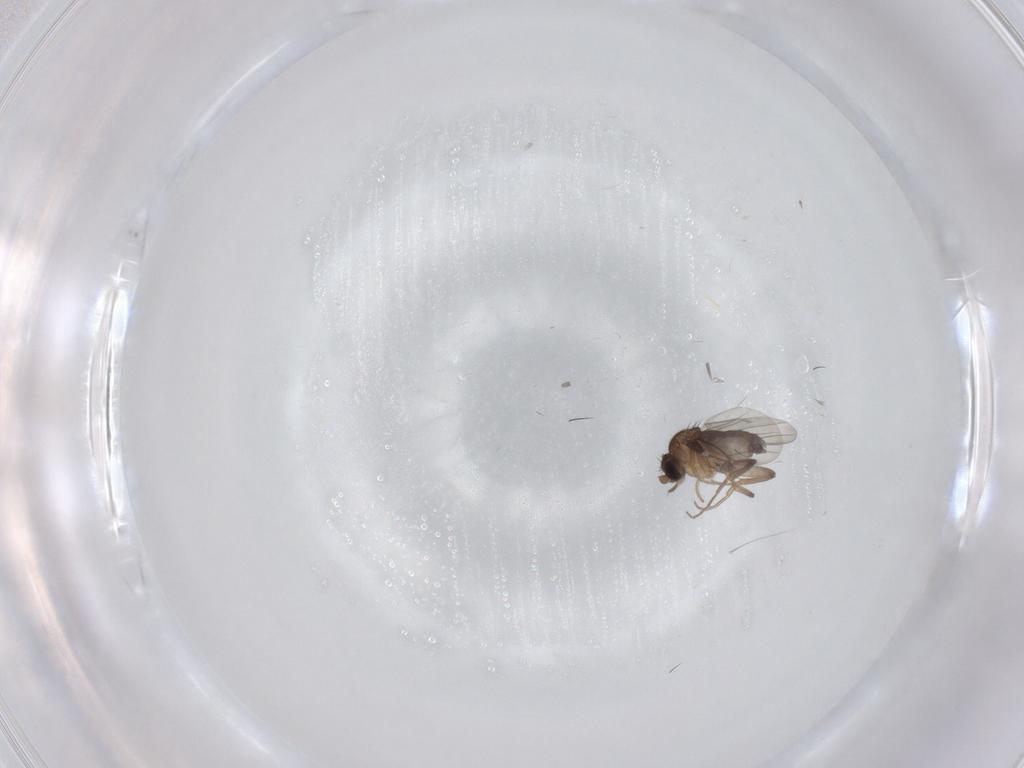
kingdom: Animalia
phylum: Arthropoda
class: Insecta
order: Diptera
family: Phoridae
